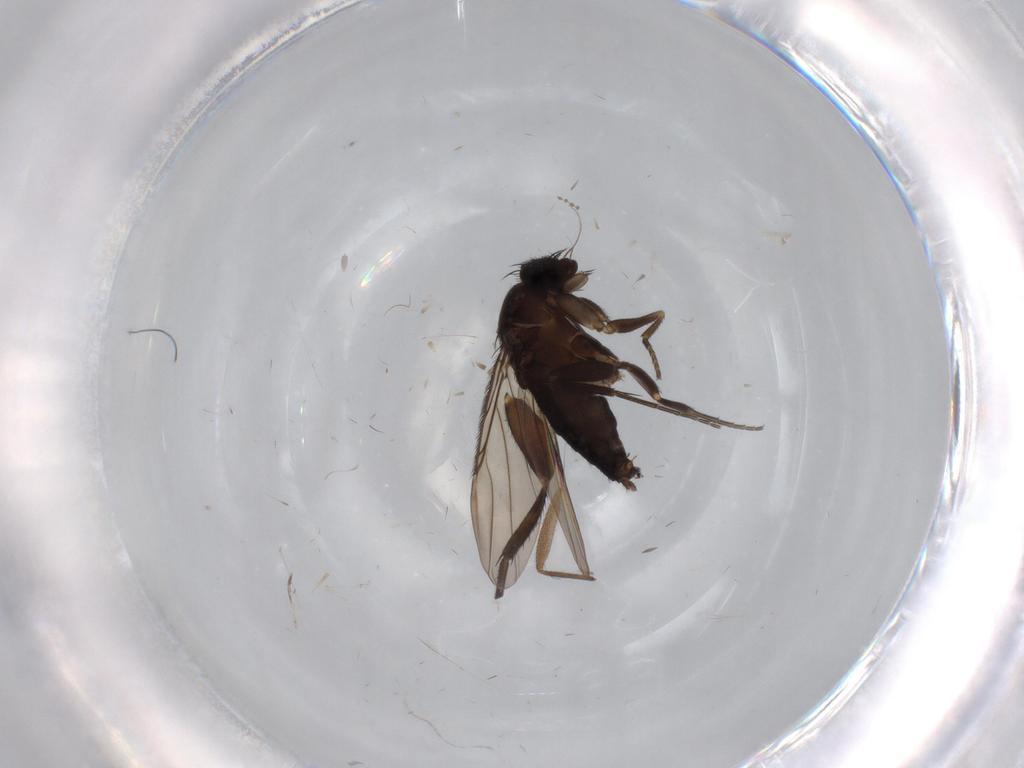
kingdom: Animalia
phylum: Arthropoda
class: Insecta
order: Diptera
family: Phoridae
